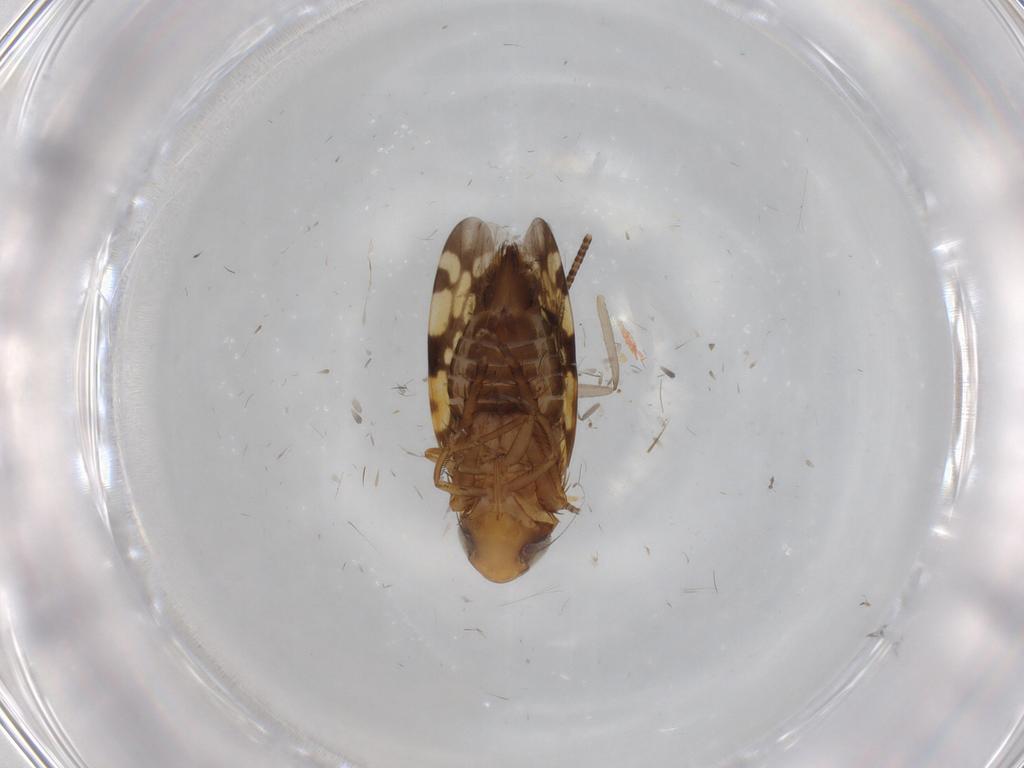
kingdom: Animalia
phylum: Arthropoda
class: Insecta
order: Hemiptera
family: Cicadellidae
